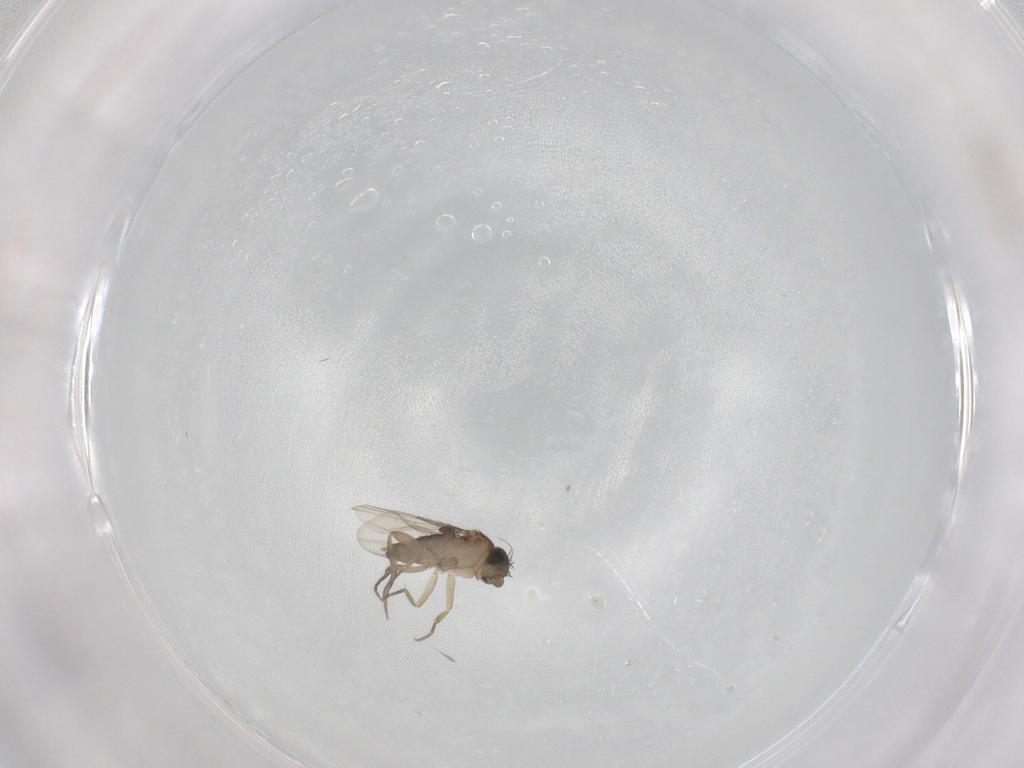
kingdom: Animalia
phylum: Arthropoda
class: Insecta
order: Diptera
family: Phoridae
